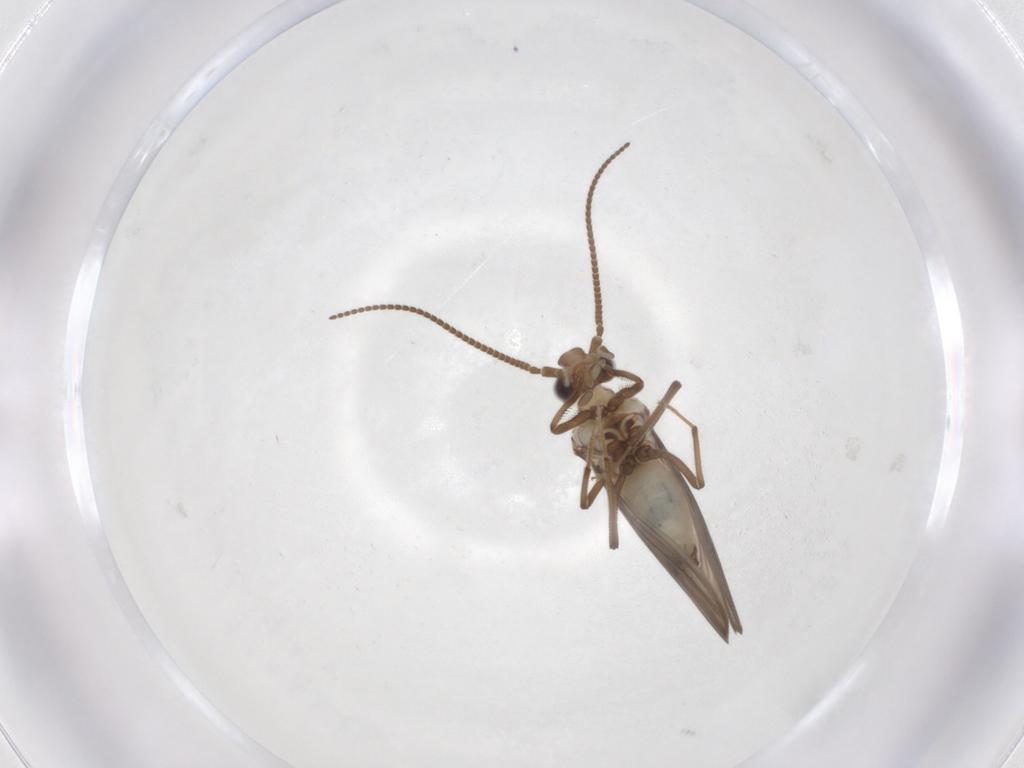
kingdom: Animalia
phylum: Arthropoda
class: Insecta
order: Neuroptera
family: Coniopterygidae
